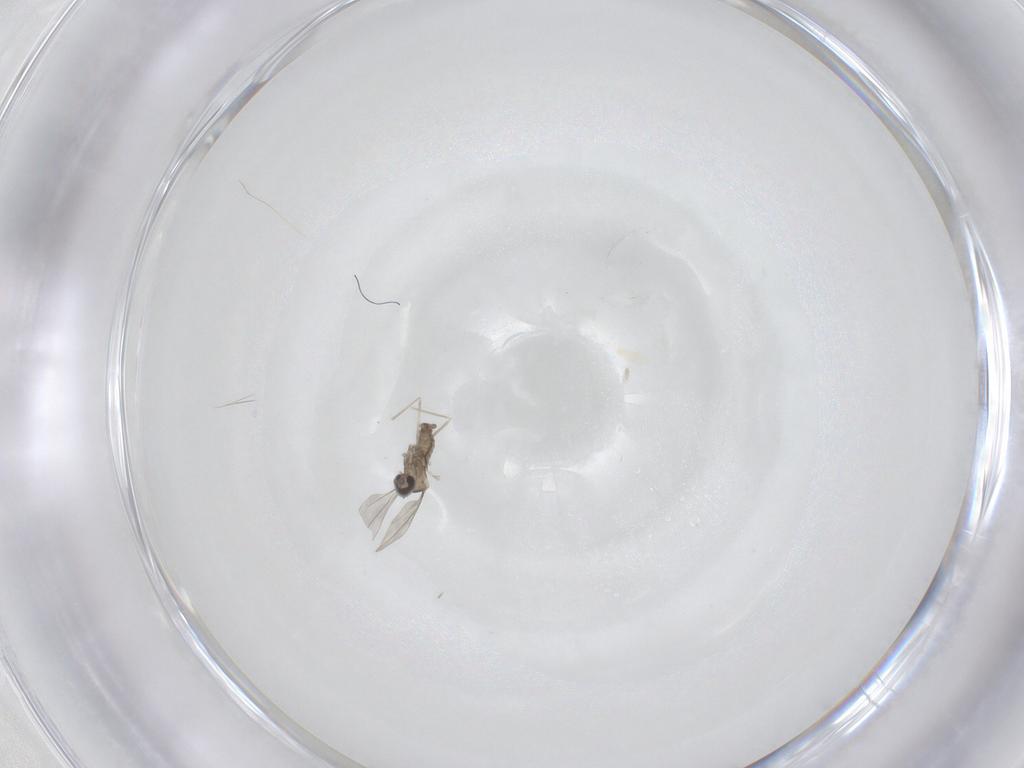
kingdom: Animalia
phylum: Arthropoda
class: Insecta
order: Diptera
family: Cecidomyiidae
